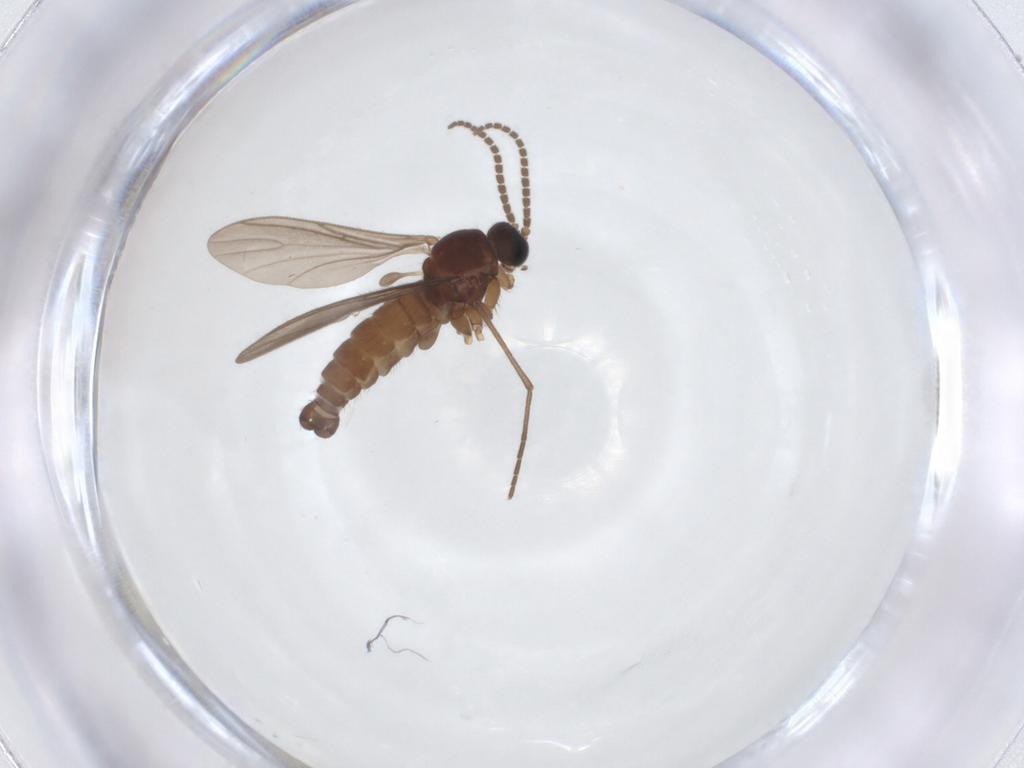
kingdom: Animalia
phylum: Arthropoda
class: Insecta
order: Diptera
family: Sciaridae
